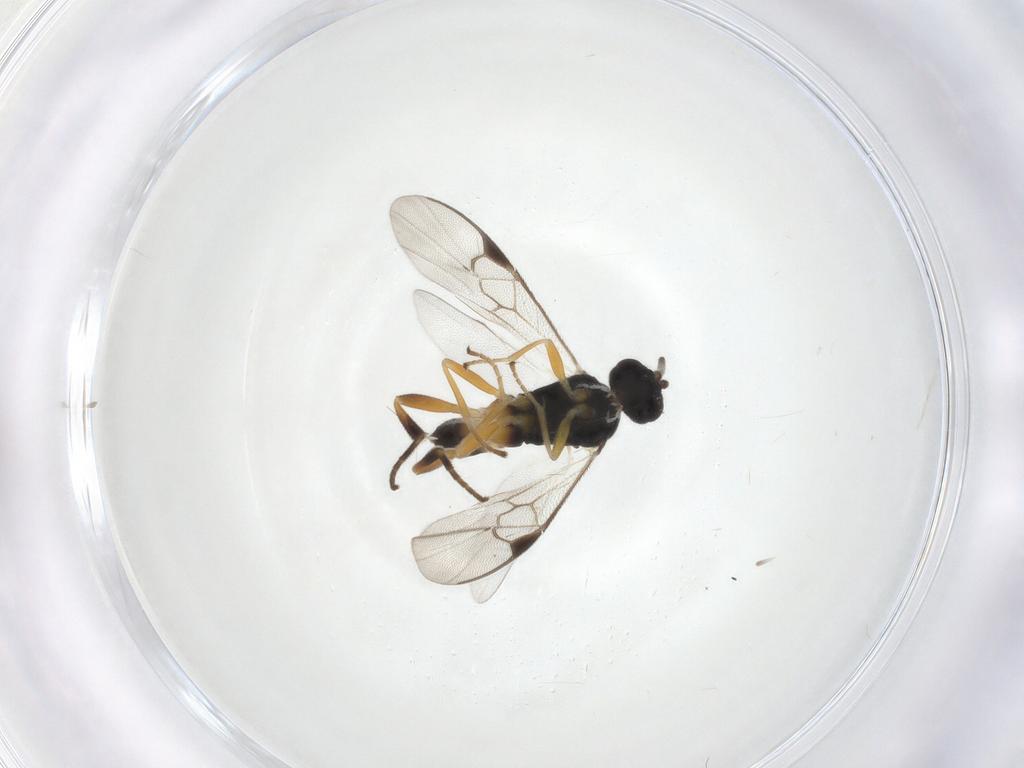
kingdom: Animalia
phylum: Arthropoda
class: Insecta
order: Hymenoptera
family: Braconidae
